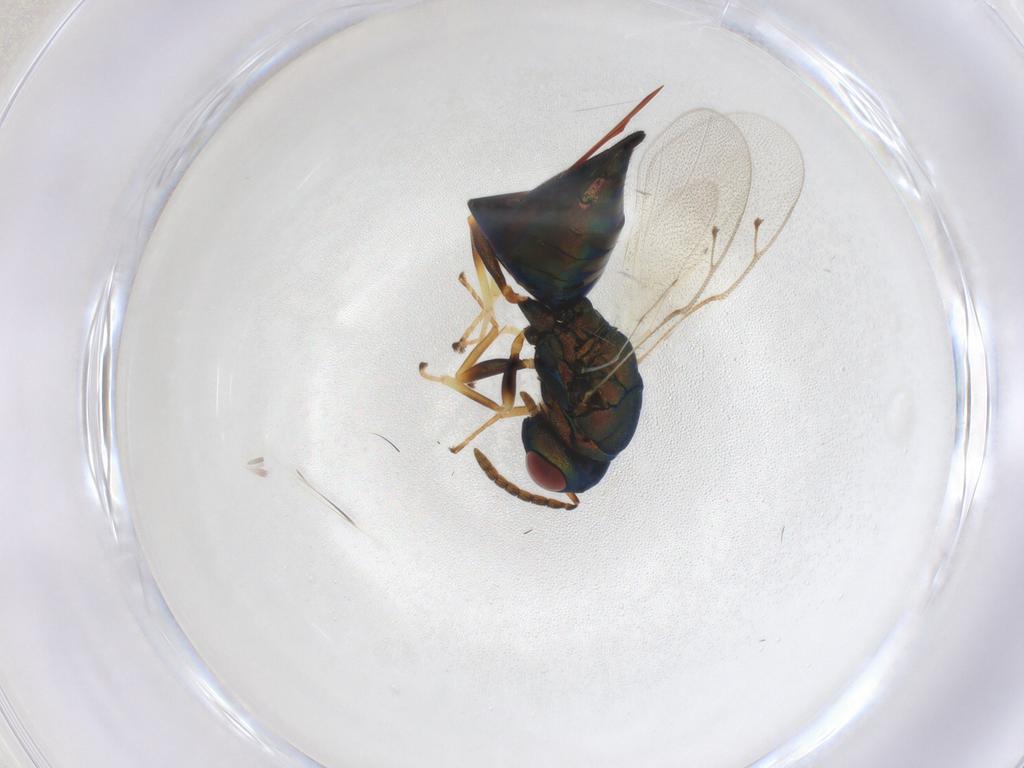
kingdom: Animalia
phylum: Arthropoda
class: Insecta
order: Hymenoptera
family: Pteromalidae
